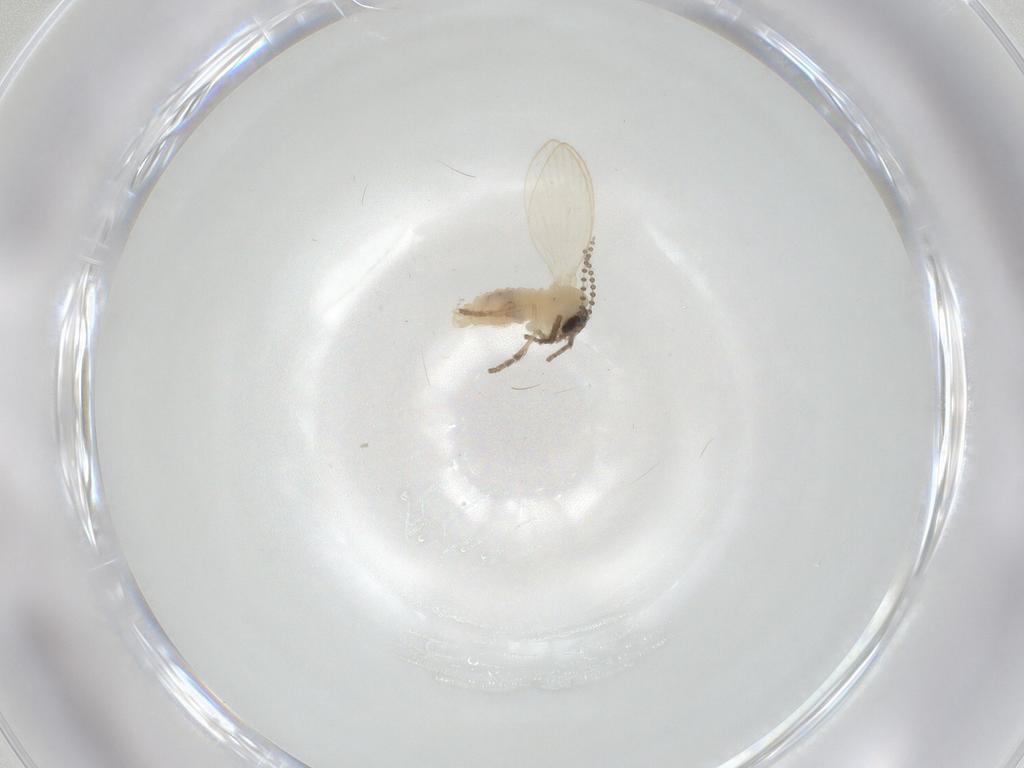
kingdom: Animalia
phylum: Arthropoda
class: Insecta
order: Diptera
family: Psychodidae
